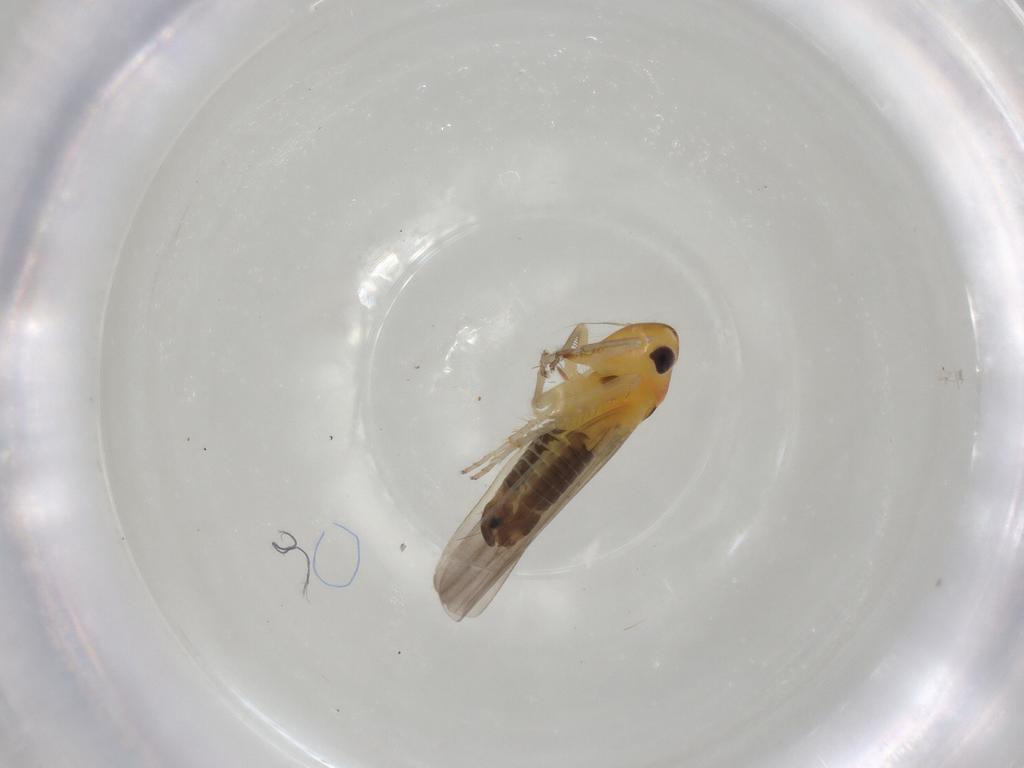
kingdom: Animalia
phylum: Arthropoda
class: Insecta
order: Hemiptera
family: Cicadellidae
